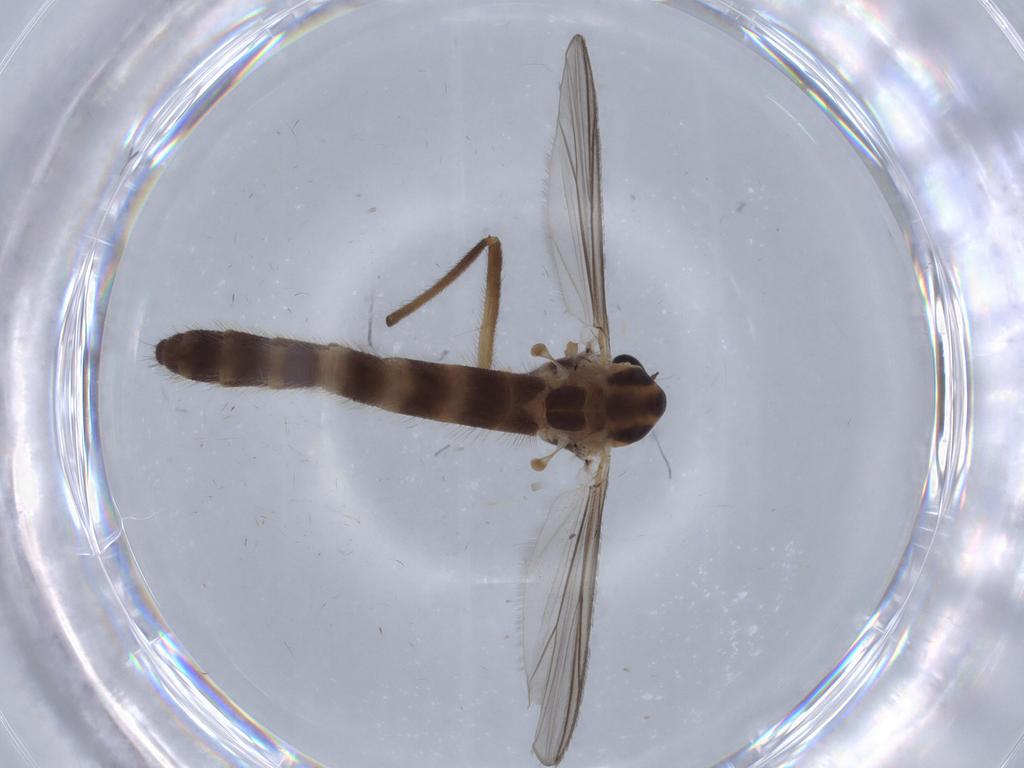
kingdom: Animalia
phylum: Arthropoda
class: Insecta
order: Diptera
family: Chironomidae
